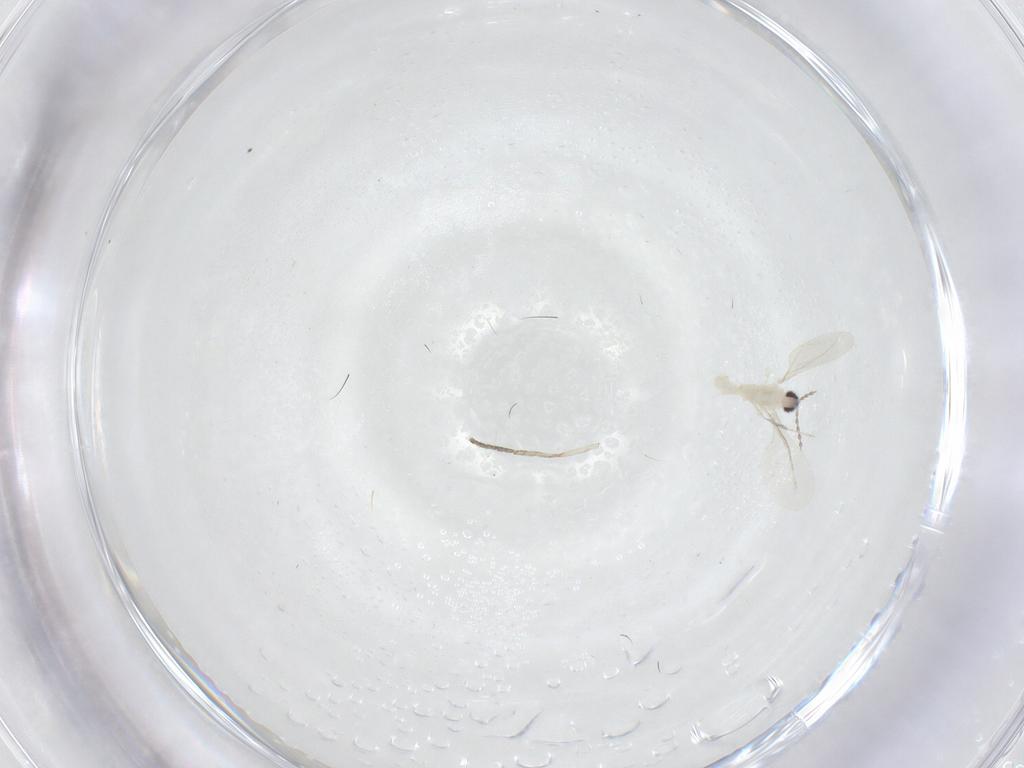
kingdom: Animalia
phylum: Arthropoda
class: Insecta
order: Diptera
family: Cecidomyiidae
